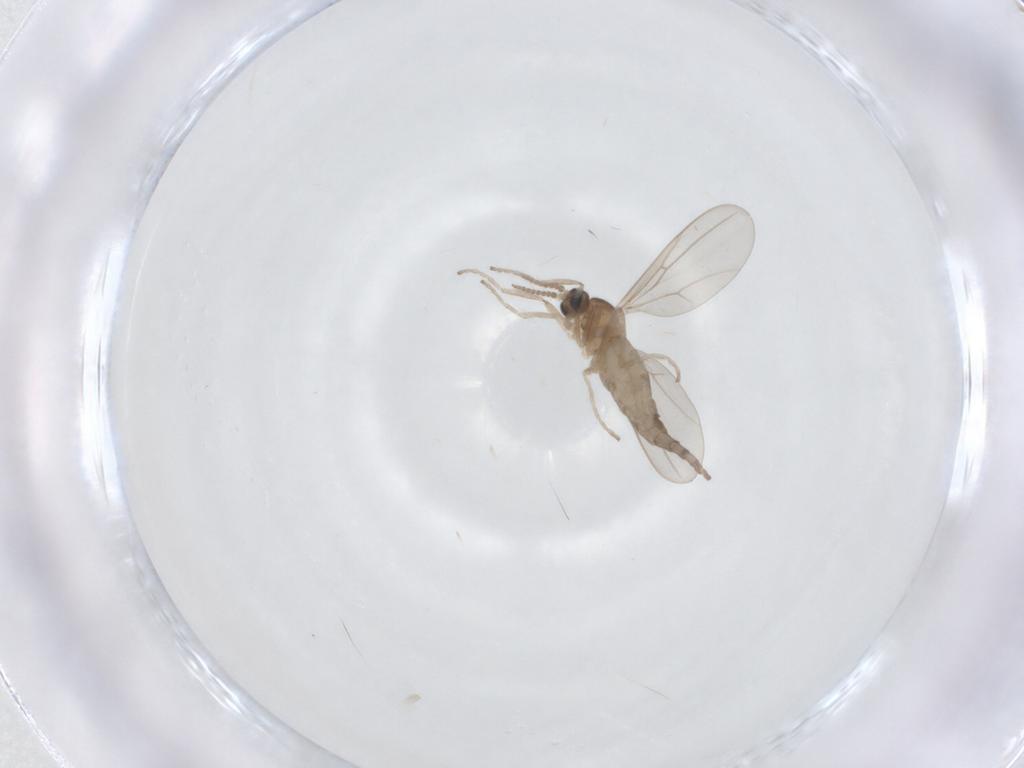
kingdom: Animalia
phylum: Arthropoda
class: Insecta
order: Diptera
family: Cecidomyiidae
